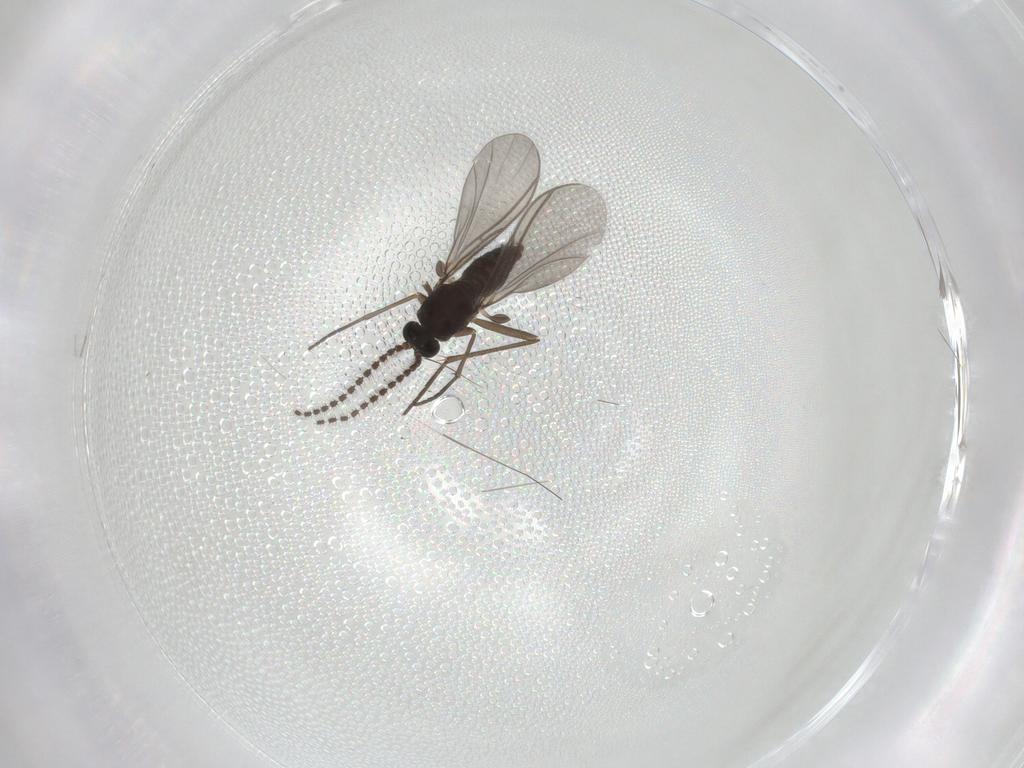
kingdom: Animalia
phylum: Arthropoda
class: Insecta
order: Diptera
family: Sciaridae
